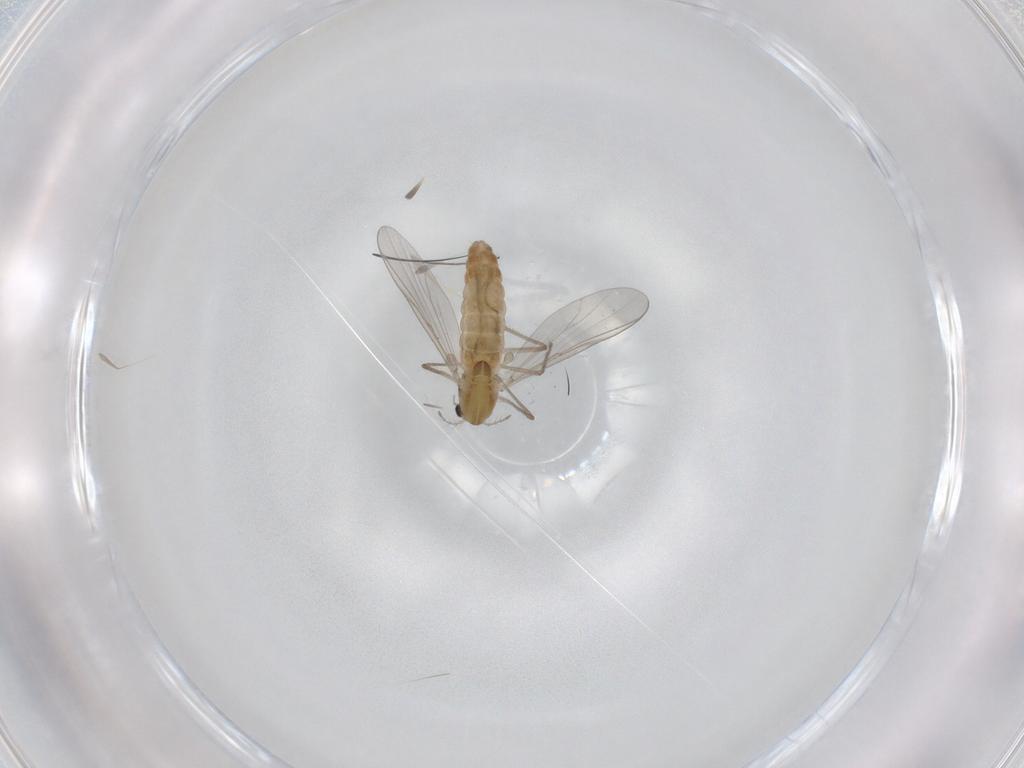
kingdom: Animalia
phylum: Arthropoda
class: Insecta
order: Diptera
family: Chironomidae
